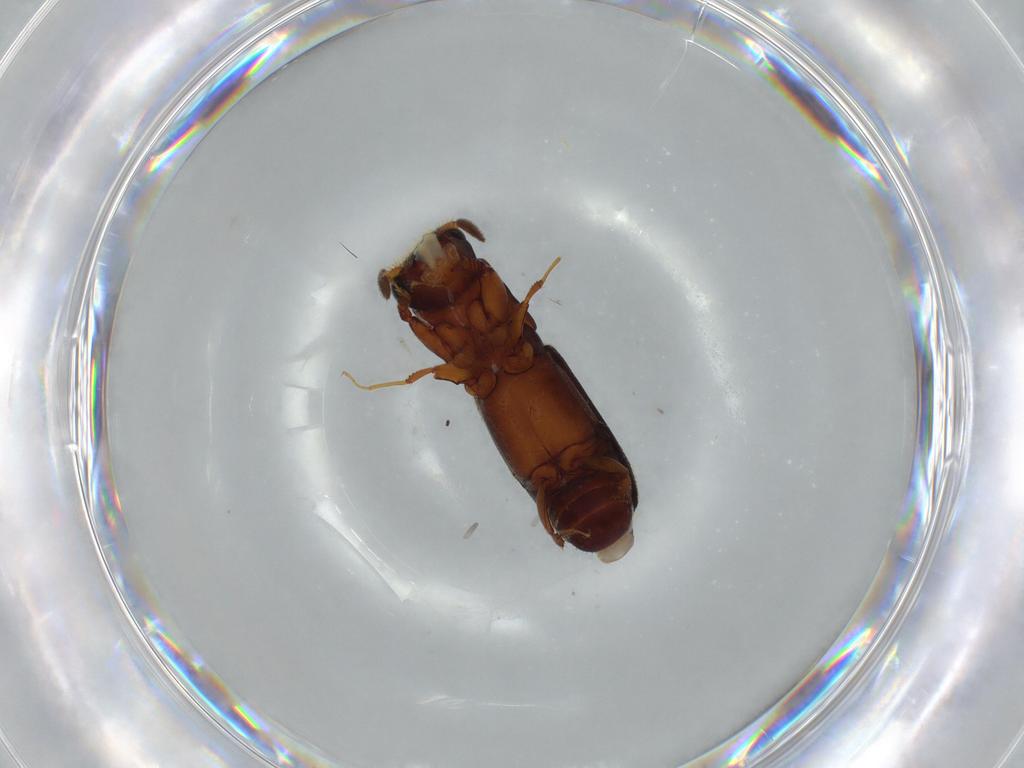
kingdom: Animalia
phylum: Arthropoda
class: Insecta
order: Coleoptera
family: Curculionidae
